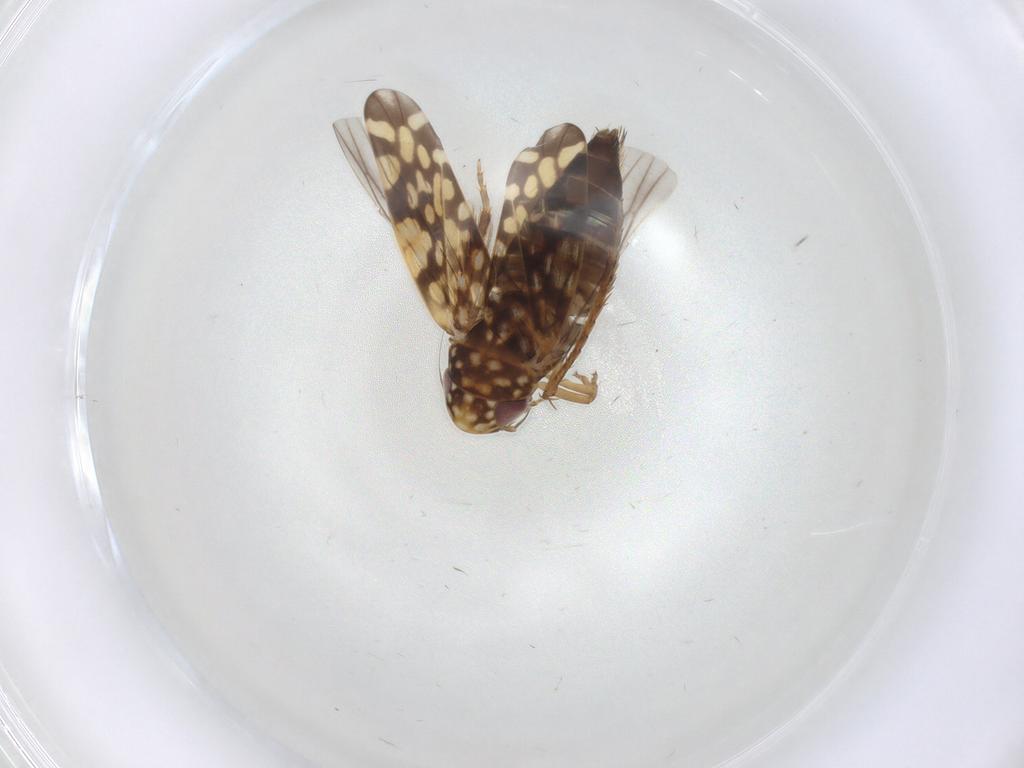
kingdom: Animalia
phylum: Arthropoda
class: Insecta
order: Hemiptera
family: Cicadellidae
